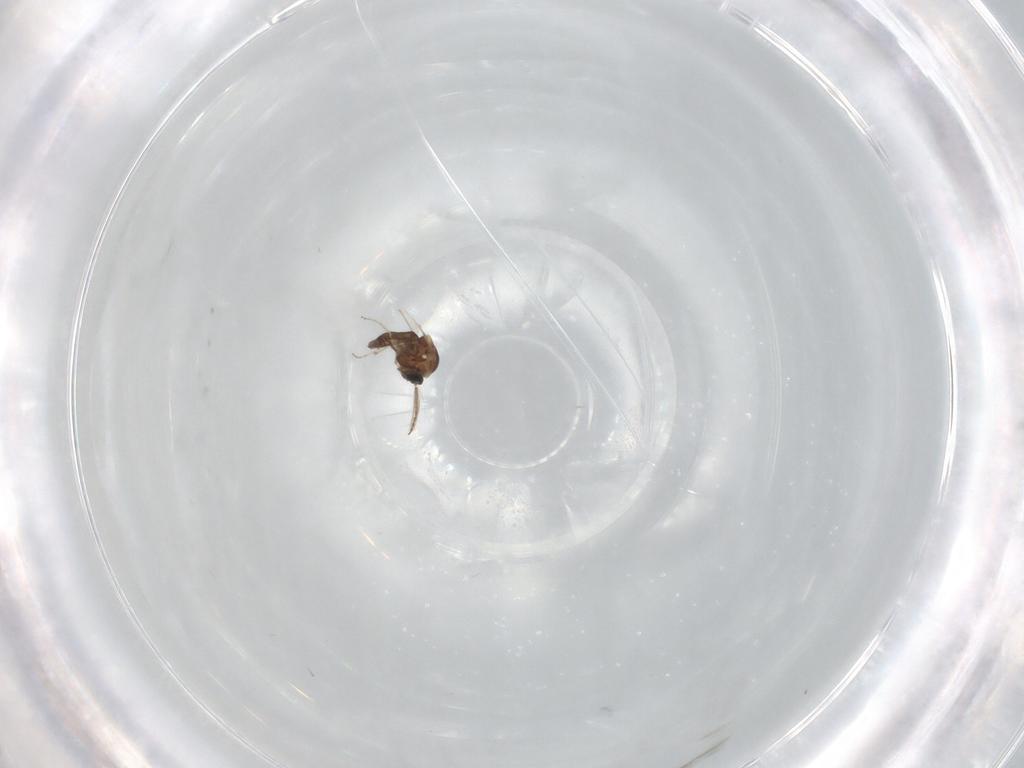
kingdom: Animalia
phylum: Arthropoda
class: Insecta
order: Diptera
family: Ceratopogonidae
